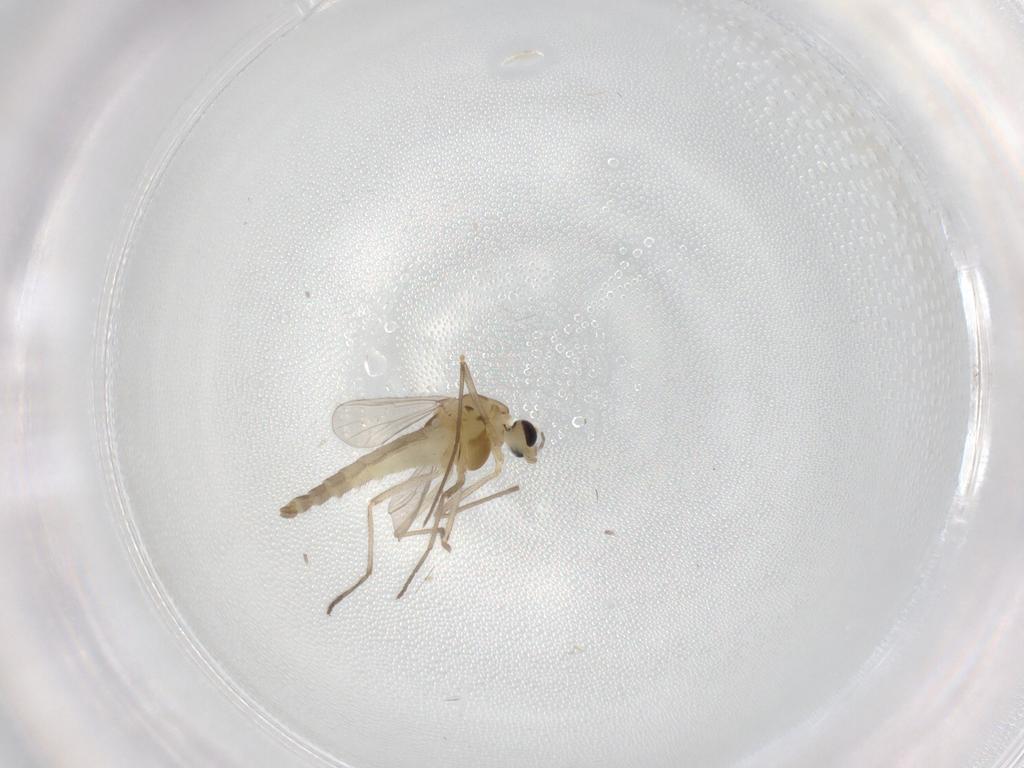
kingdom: Animalia
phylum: Arthropoda
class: Insecta
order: Diptera
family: Chironomidae
